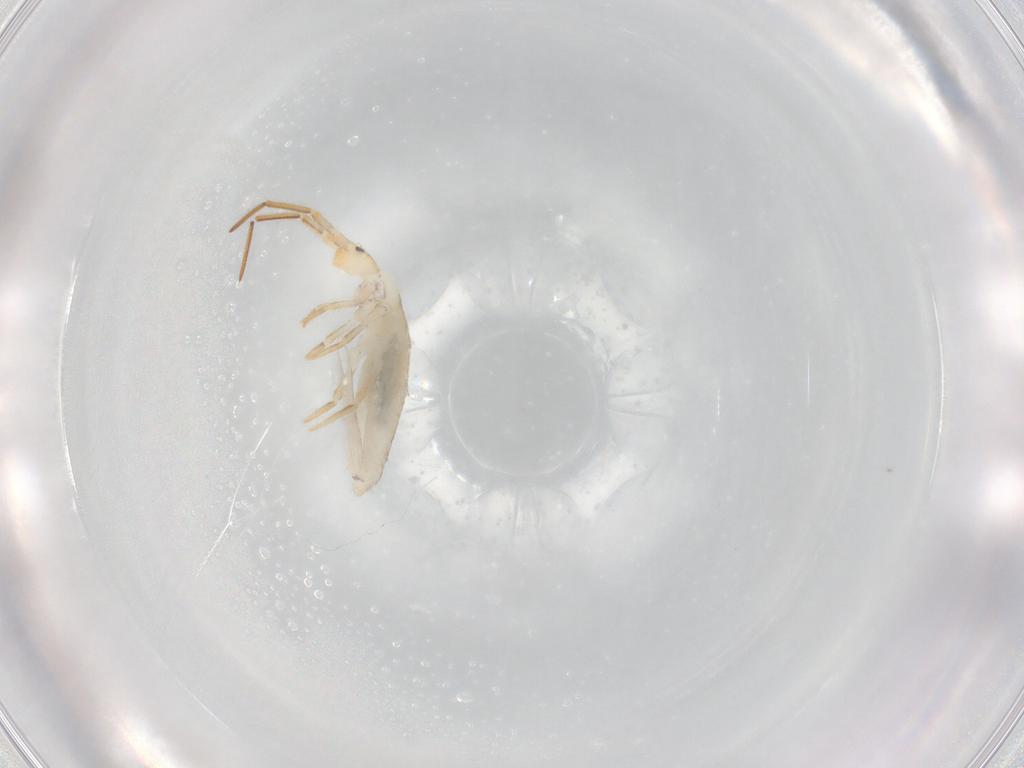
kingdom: Animalia
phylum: Arthropoda
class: Collembola
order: Entomobryomorpha
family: Entomobryidae
